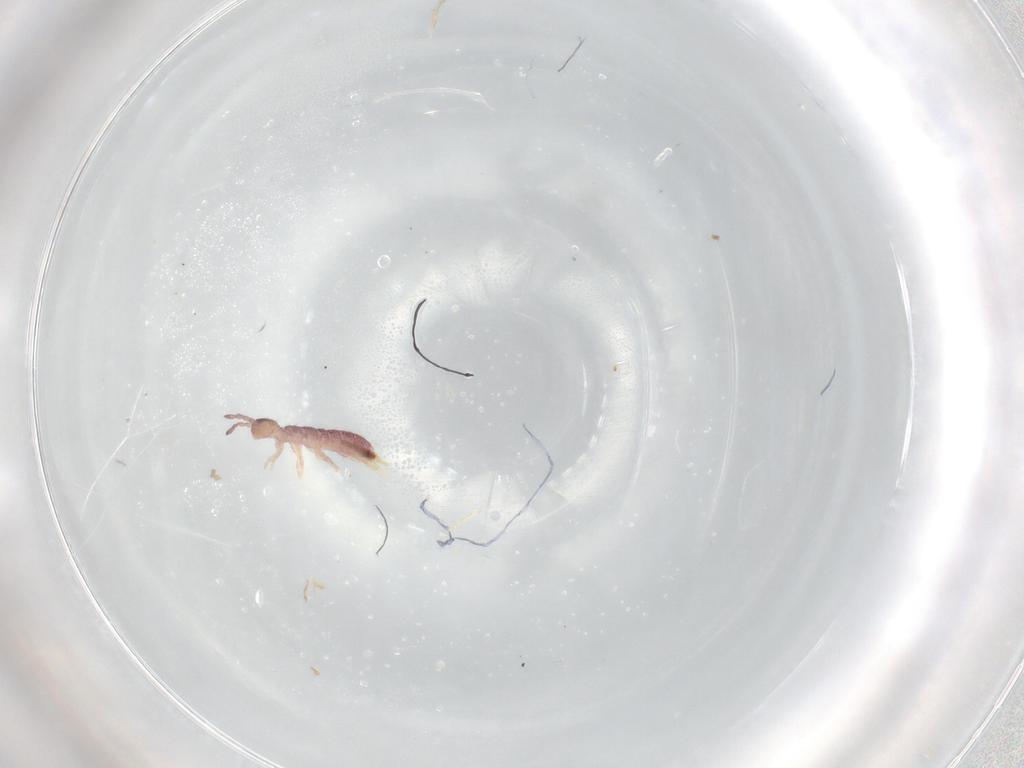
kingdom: Animalia
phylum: Arthropoda
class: Collembola
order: Entomobryomorpha
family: Isotomidae
